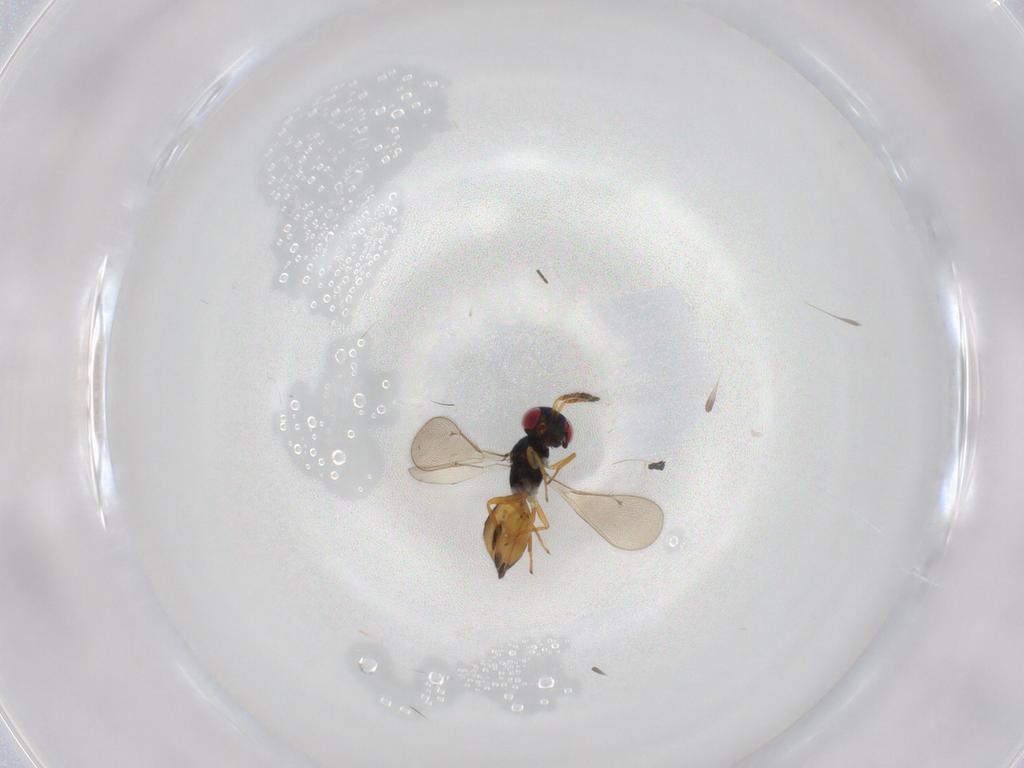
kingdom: Animalia
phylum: Arthropoda
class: Insecta
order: Hymenoptera
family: Eulophidae
